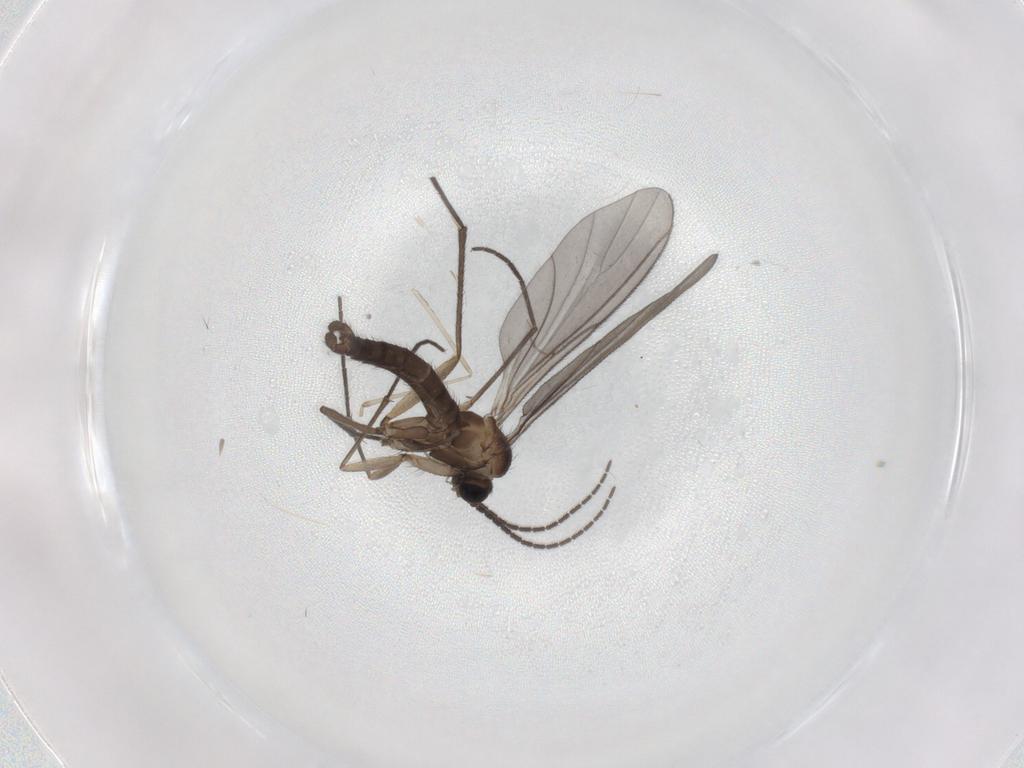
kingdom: Animalia
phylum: Arthropoda
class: Insecta
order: Diptera
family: Sciaridae
